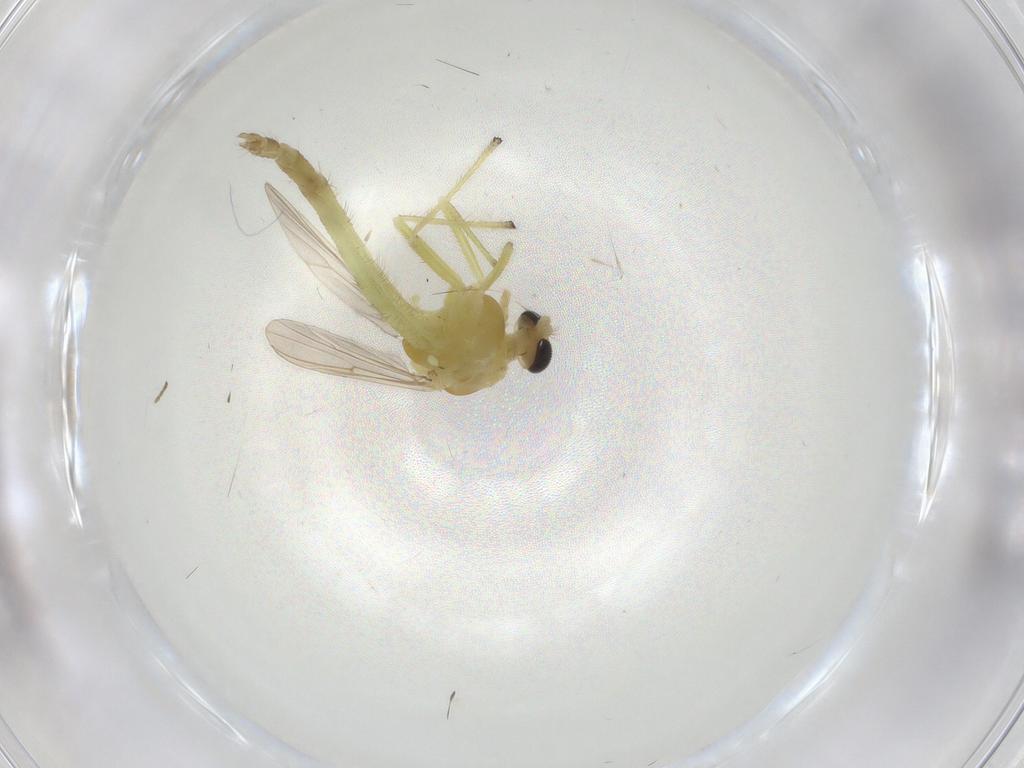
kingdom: Animalia
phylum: Arthropoda
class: Insecta
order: Diptera
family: Chironomidae
